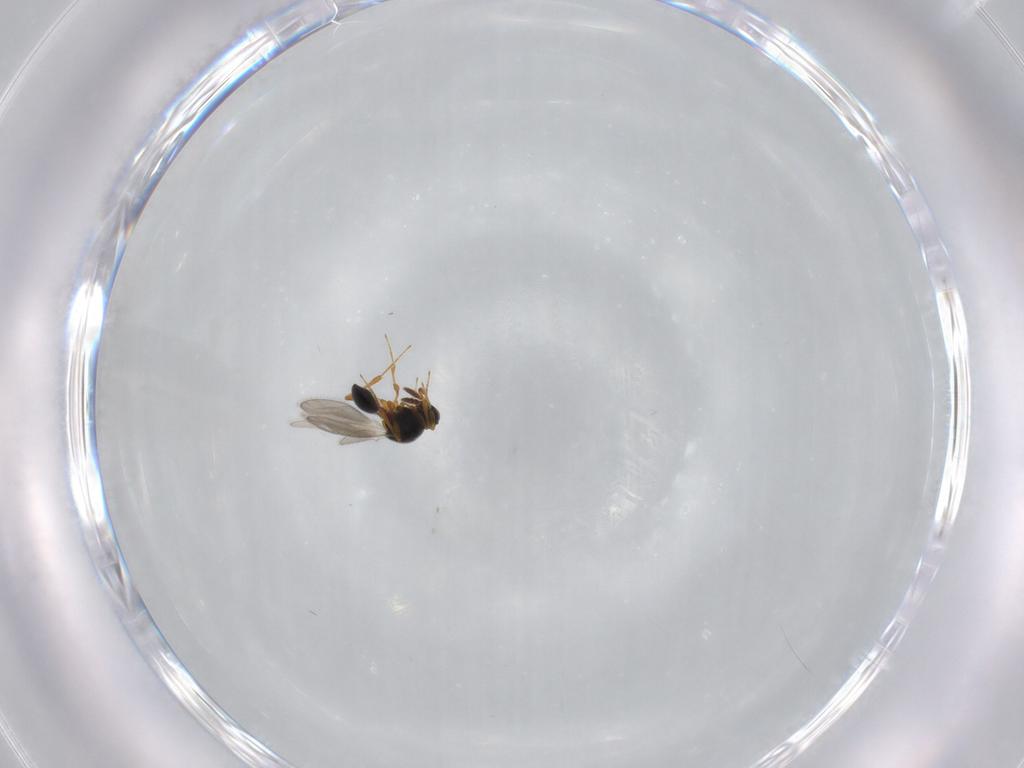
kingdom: Animalia
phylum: Arthropoda
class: Insecta
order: Hymenoptera
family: Platygastridae
